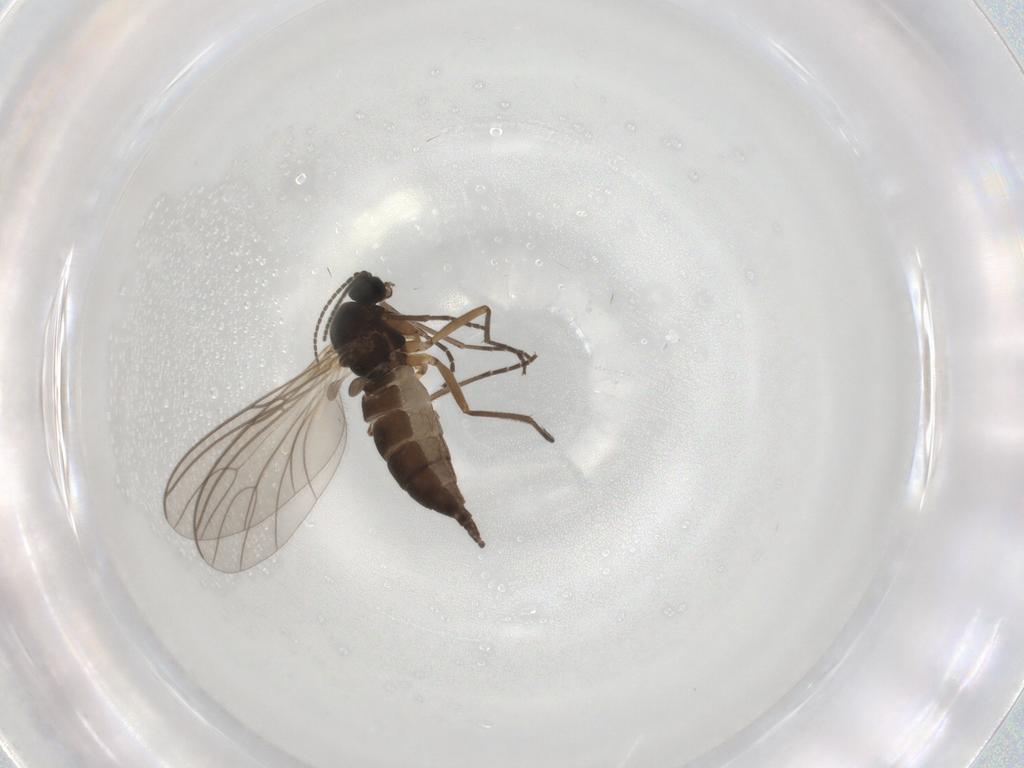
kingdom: Animalia
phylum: Arthropoda
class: Insecta
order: Diptera
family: Sciaridae
